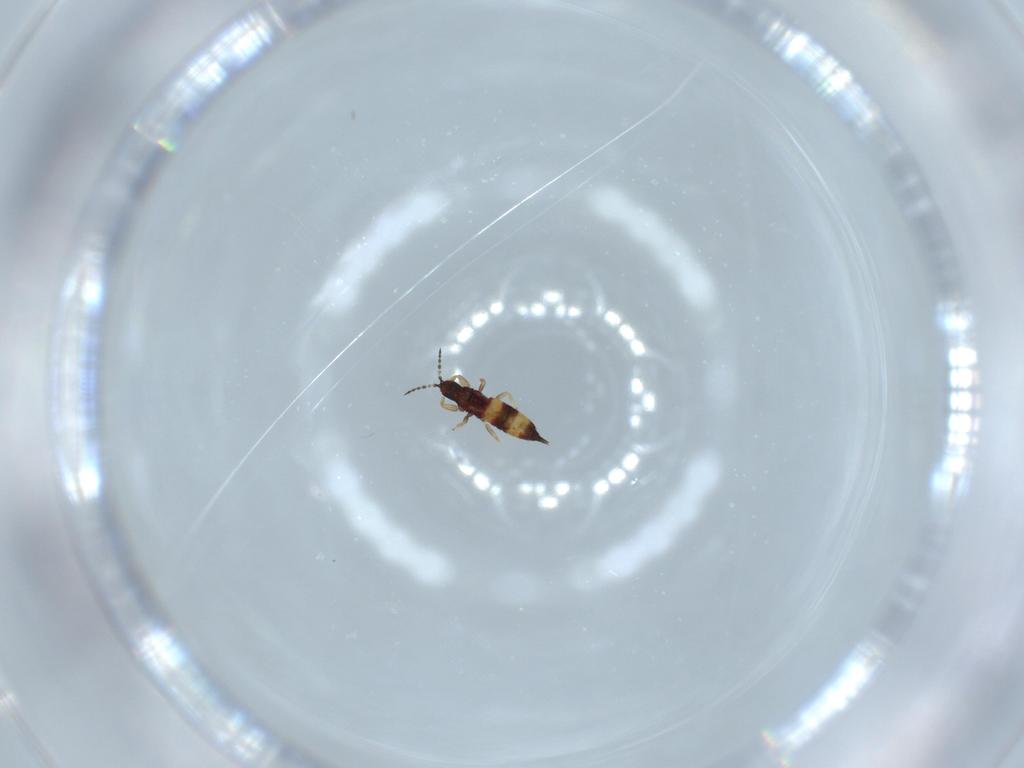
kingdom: Animalia
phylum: Arthropoda
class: Insecta
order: Thysanoptera
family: Phlaeothripidae
